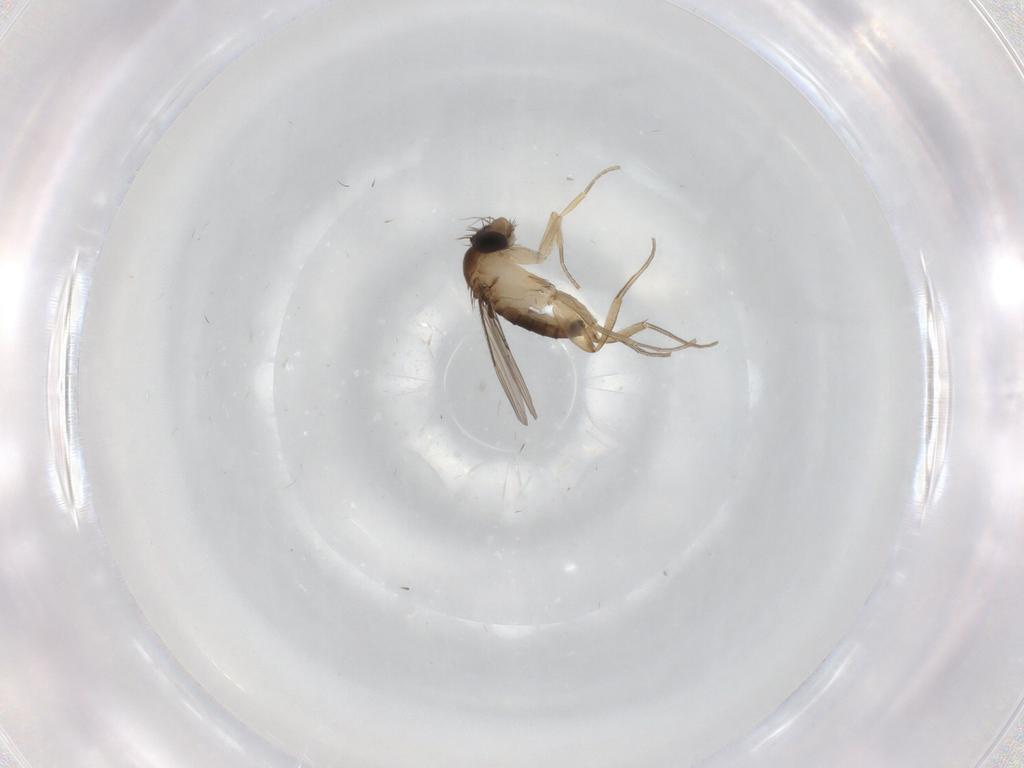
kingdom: Animalia
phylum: Arthropoda
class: Insecta
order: Diptera
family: Phoridae
